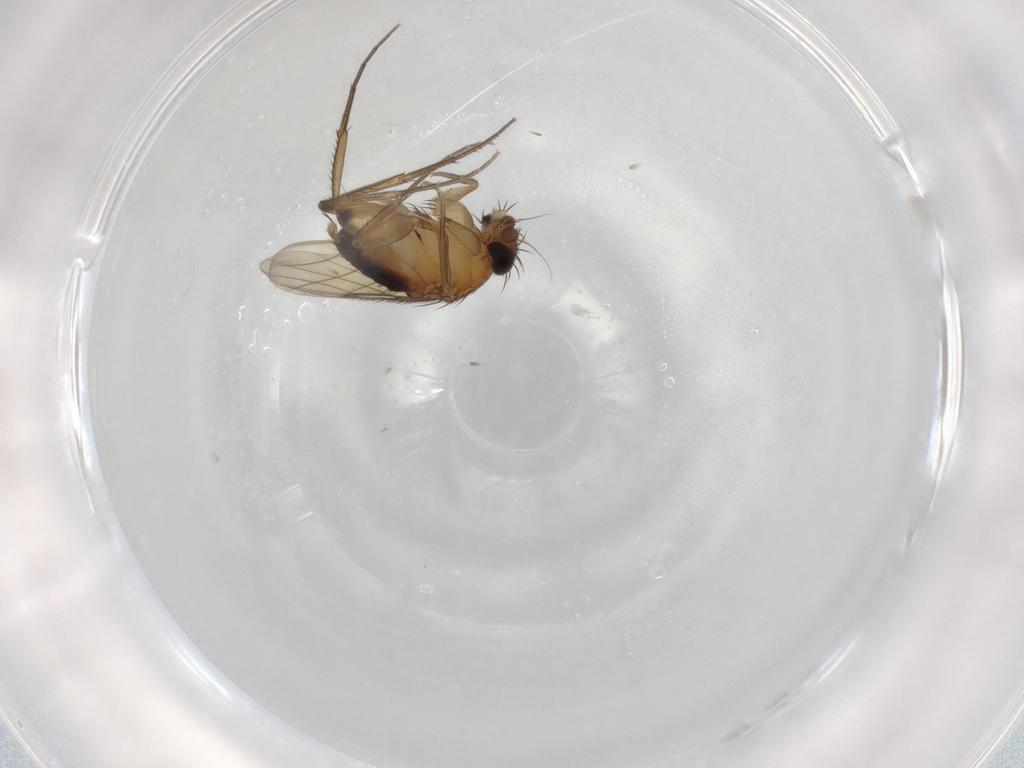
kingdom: Animalia
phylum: Arthropoda
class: Insecta
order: Diptera
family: Phoridae
